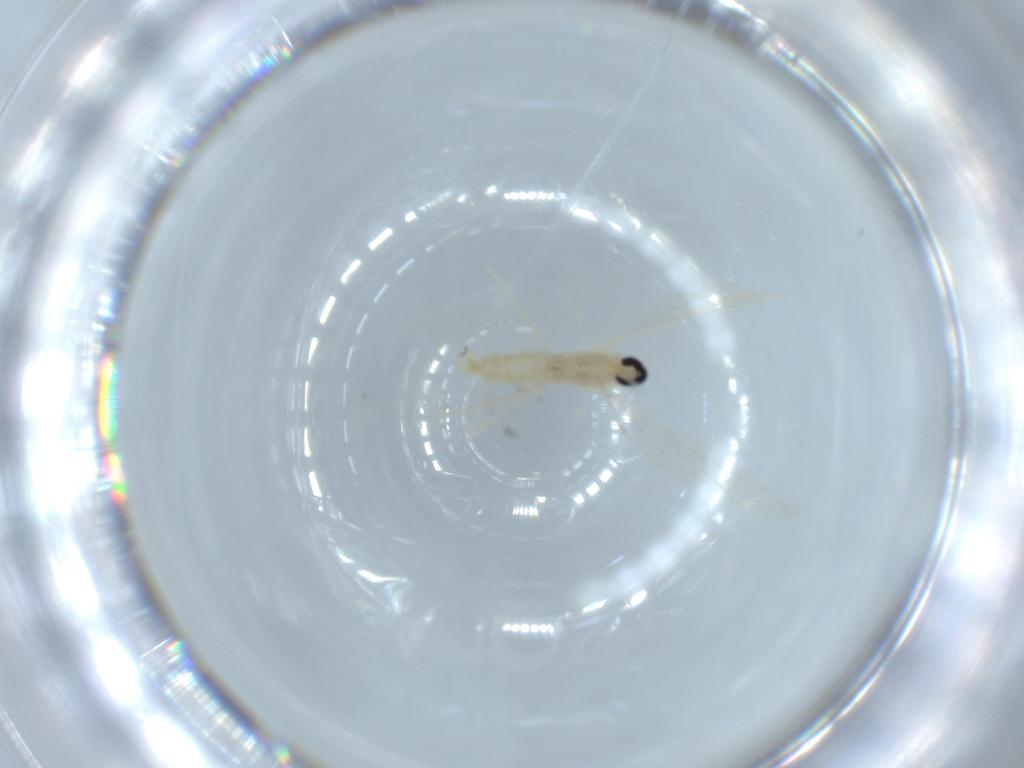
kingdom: Animalia
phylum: Arthropoda
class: Insecta
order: Diptera
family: Cecidomyiidae
